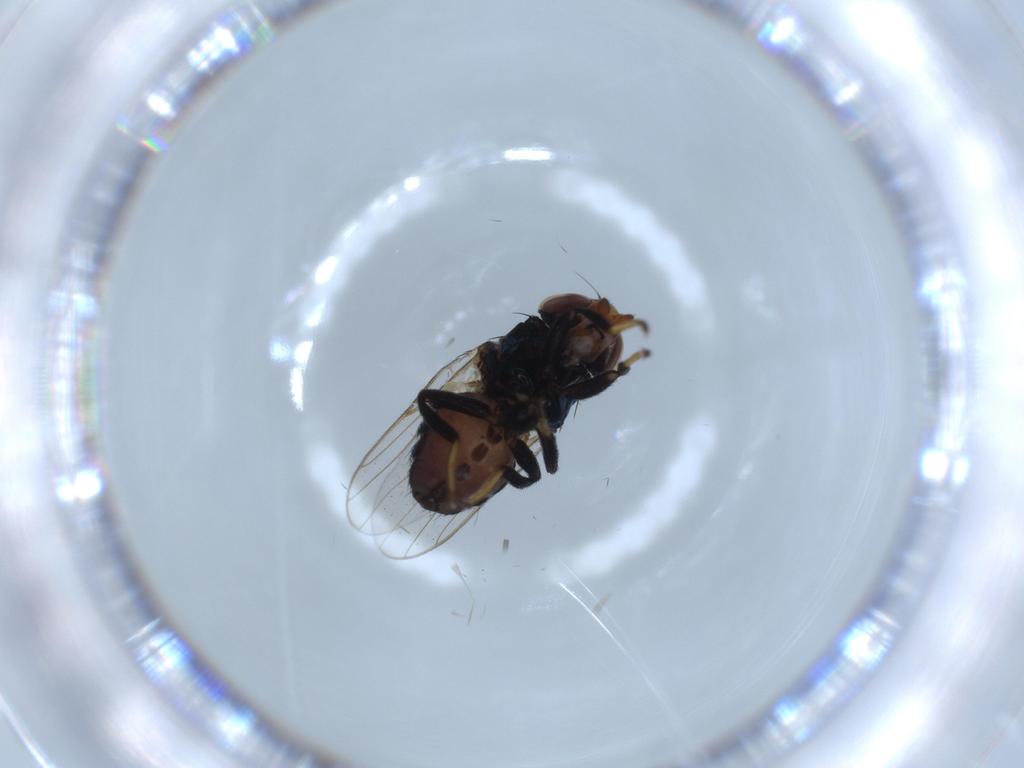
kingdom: Animalia
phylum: Arthropoda
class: Insecta
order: Diptera
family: Chloropidae
